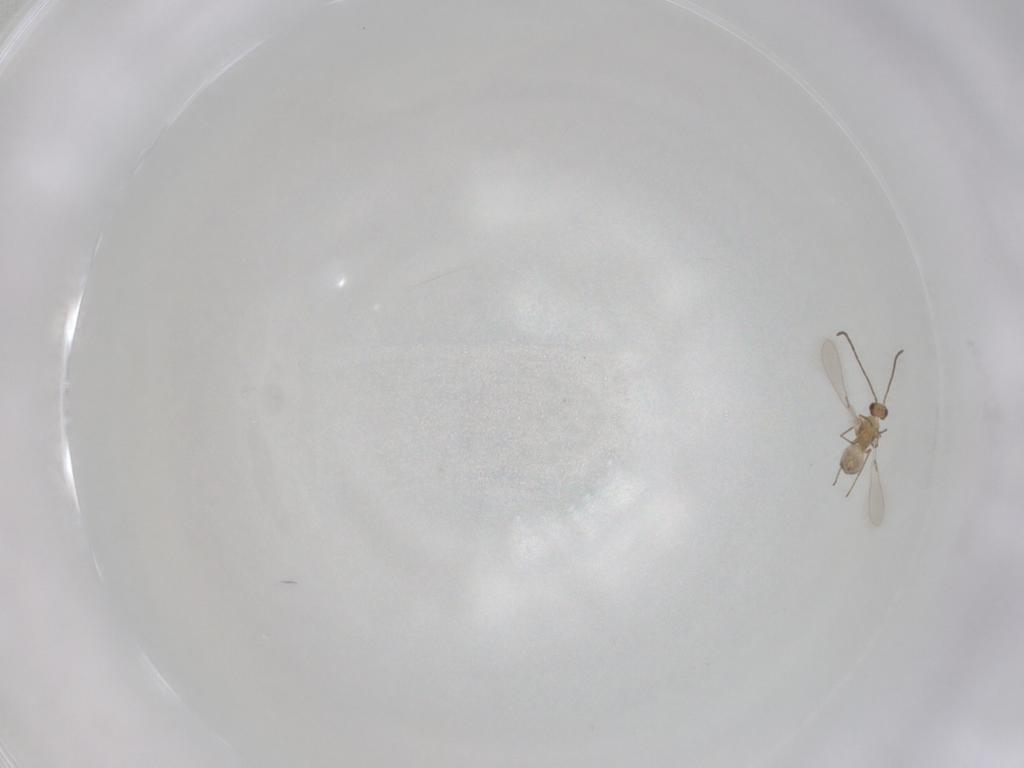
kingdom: Animalia
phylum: Arthropoda
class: Insecta
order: Hymenoptera
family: Mymaridae
